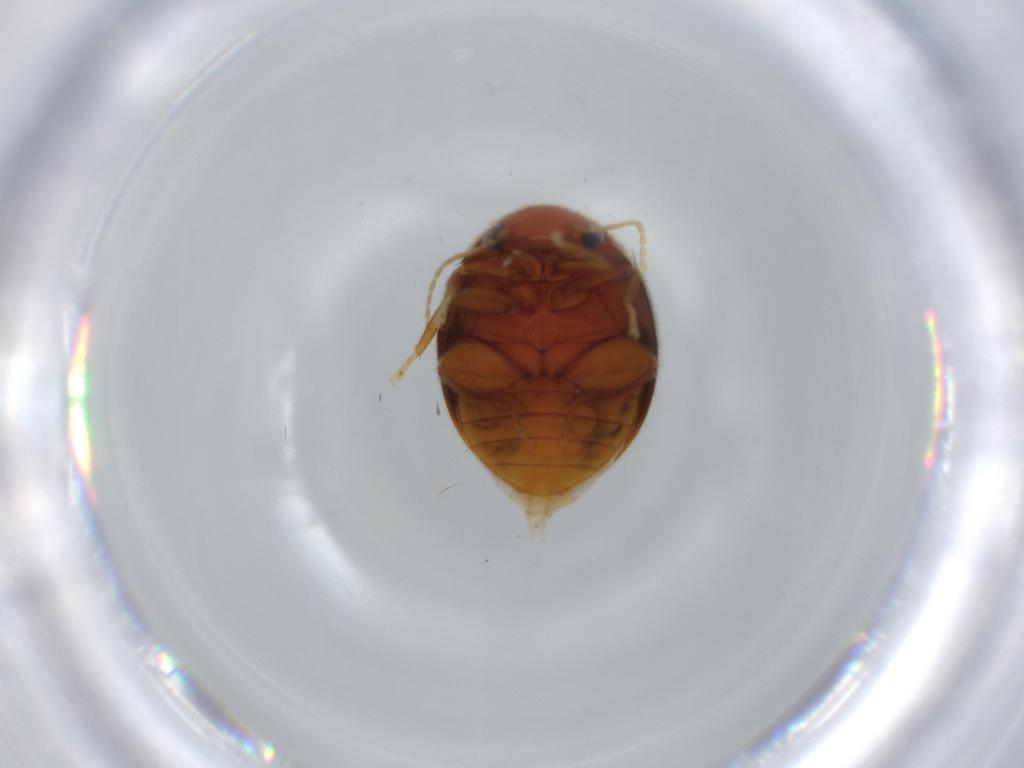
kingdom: Animalia
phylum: Arthropoda
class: Insecta
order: Coleoptera
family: Scirtidae
